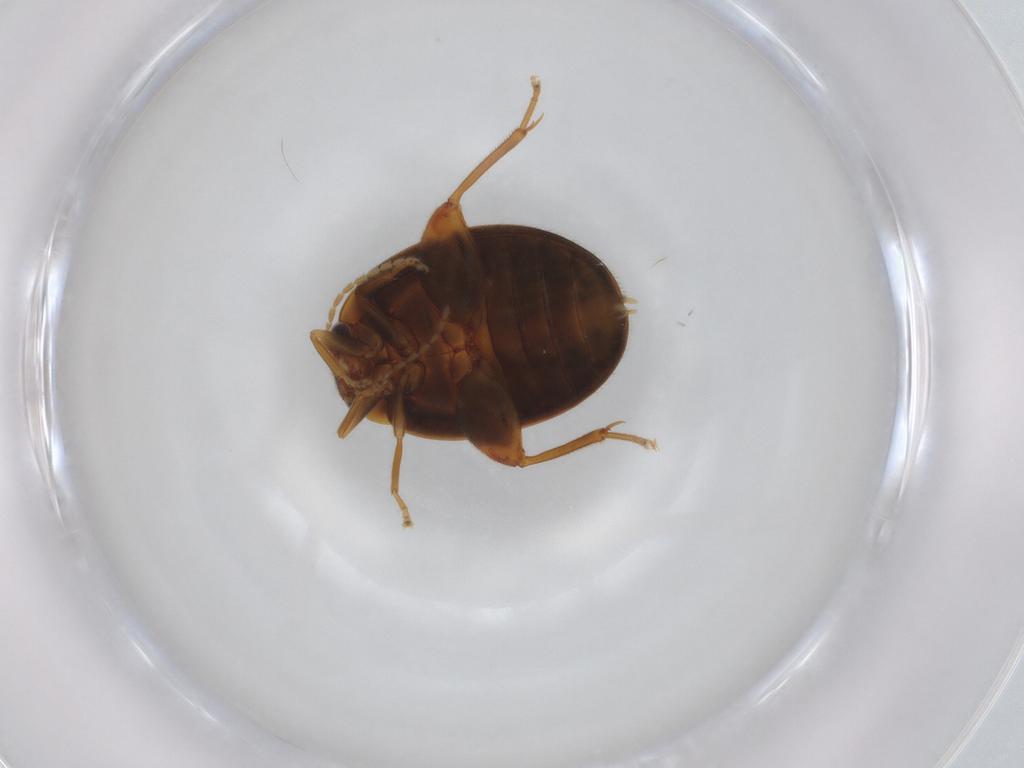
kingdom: Animalia
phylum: Arthropoda
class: Insecta
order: Coleoptera
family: Scirtidae
